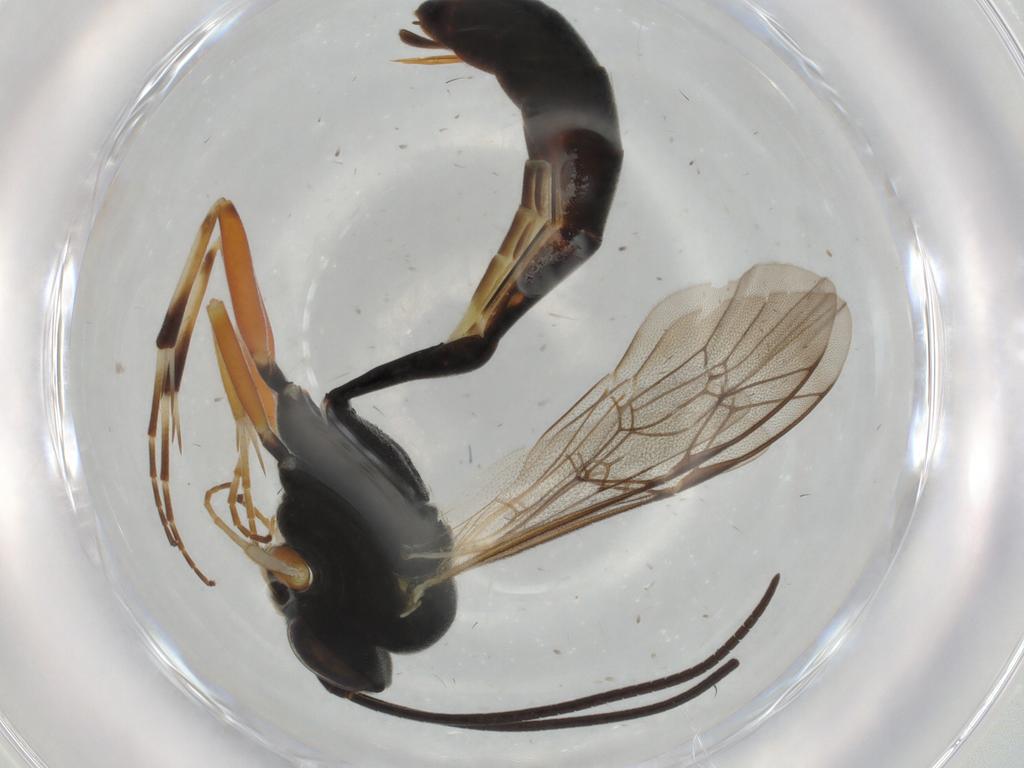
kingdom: Animalia
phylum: Arthropoda
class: Insecta
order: Hymenoptera
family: Ichneumonidae
